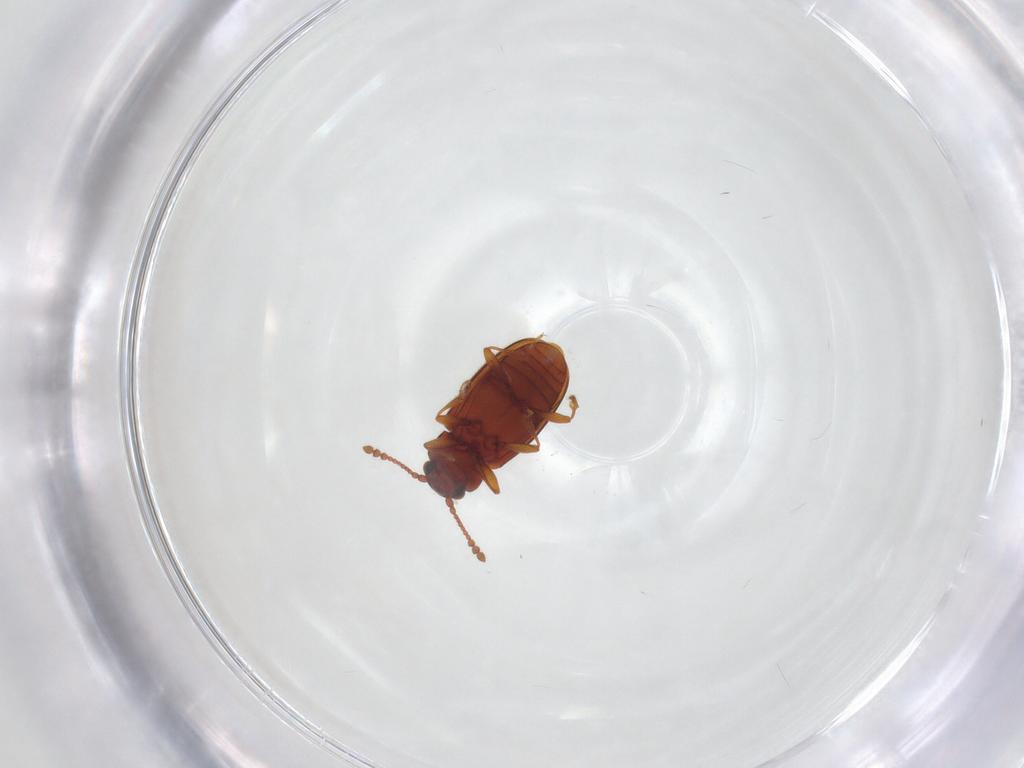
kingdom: Animalia
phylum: Arthropoda
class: Insecta
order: Coleoptera
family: Cryptophagidae
